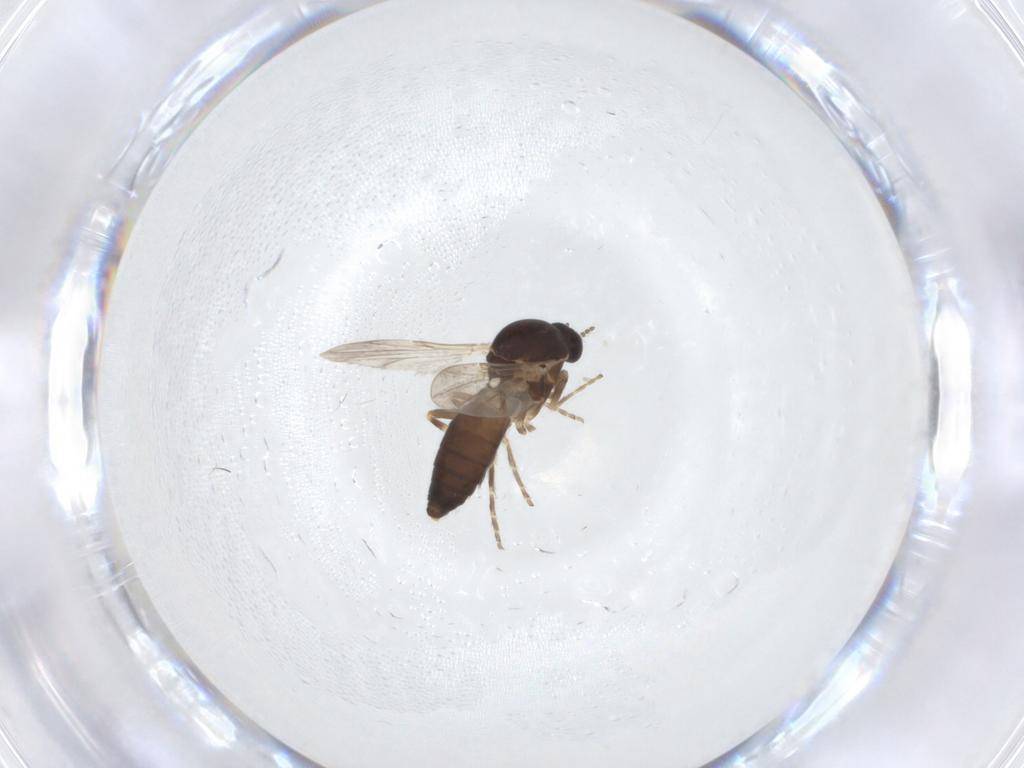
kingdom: Animalia
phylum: Arthropoda
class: Insecta
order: Diptera
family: Ceratopogonidae
